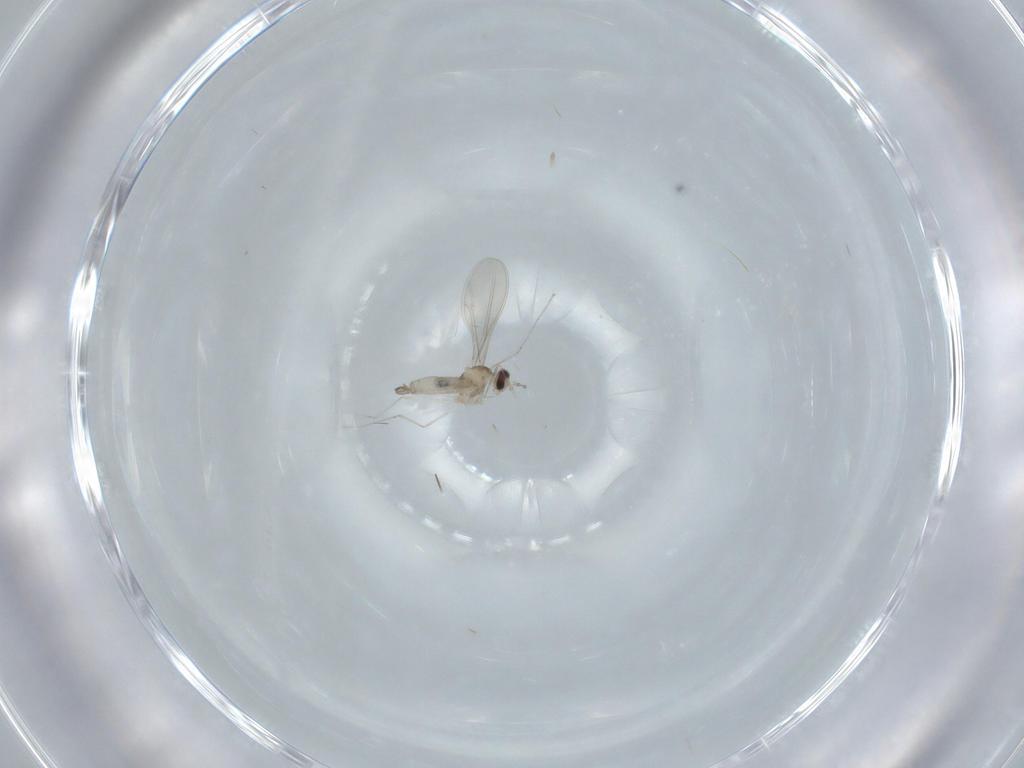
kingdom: Animalia
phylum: Arthropoda
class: Insecta
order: Diptera
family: Cecidomyiidae
